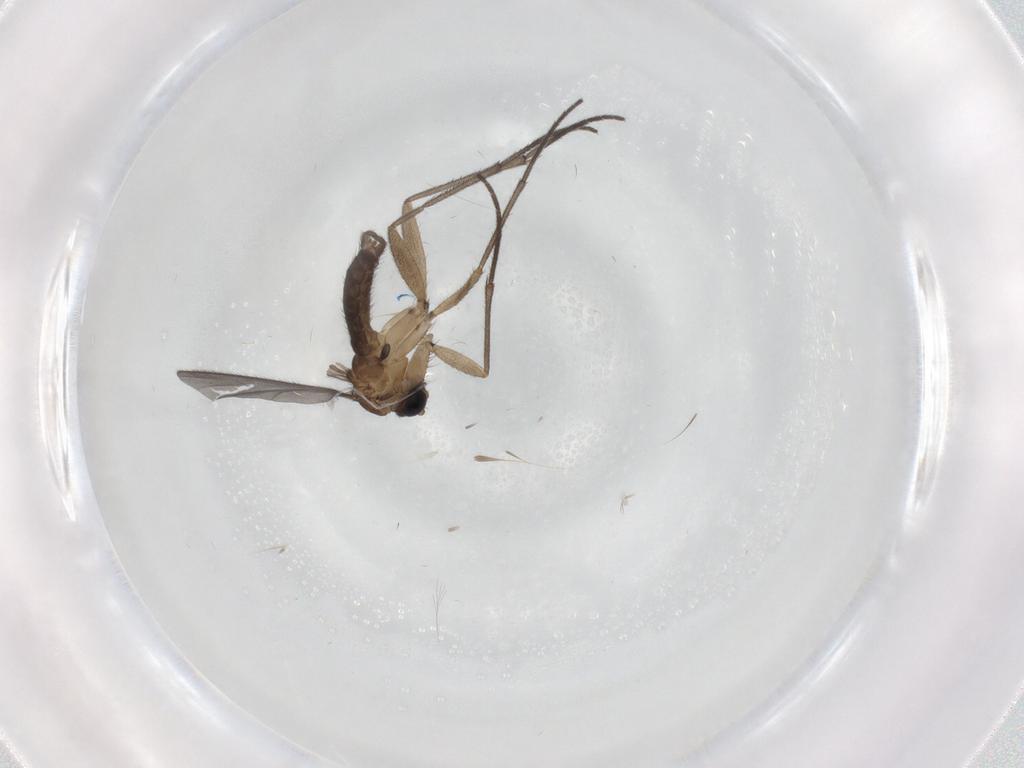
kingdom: Animalia
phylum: Arthropoda
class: Insecta
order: Diptera
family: Sciaridae
